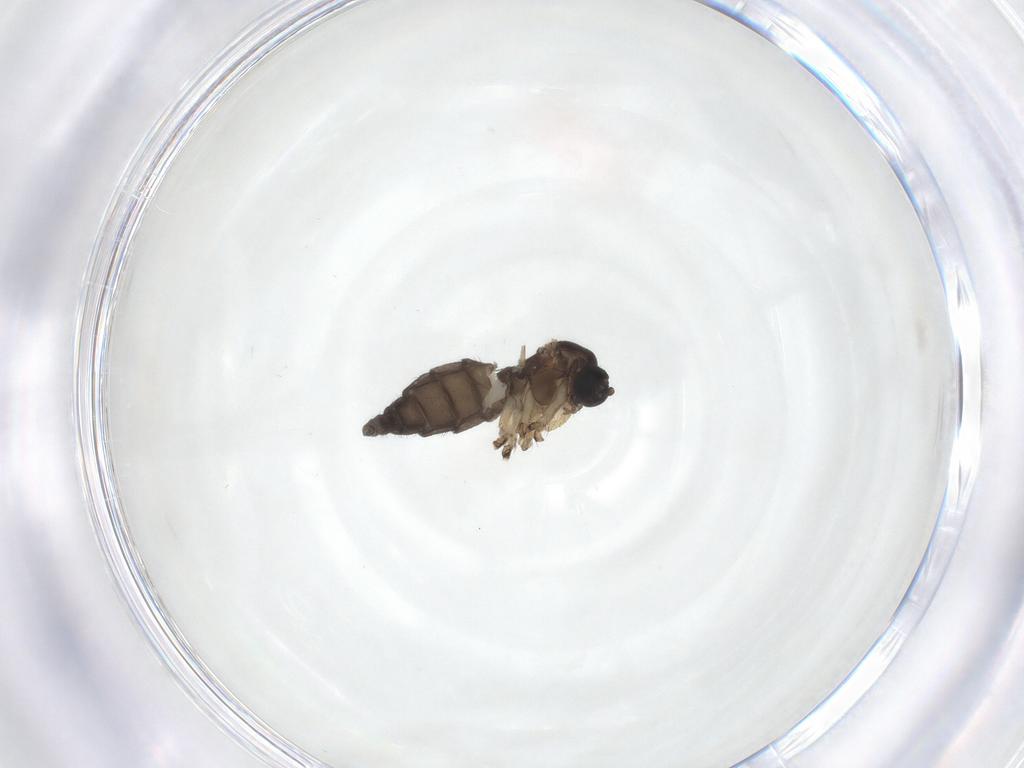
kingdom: Animalia
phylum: Arthropoda
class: Insecta
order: Diptera
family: Sciaridae
